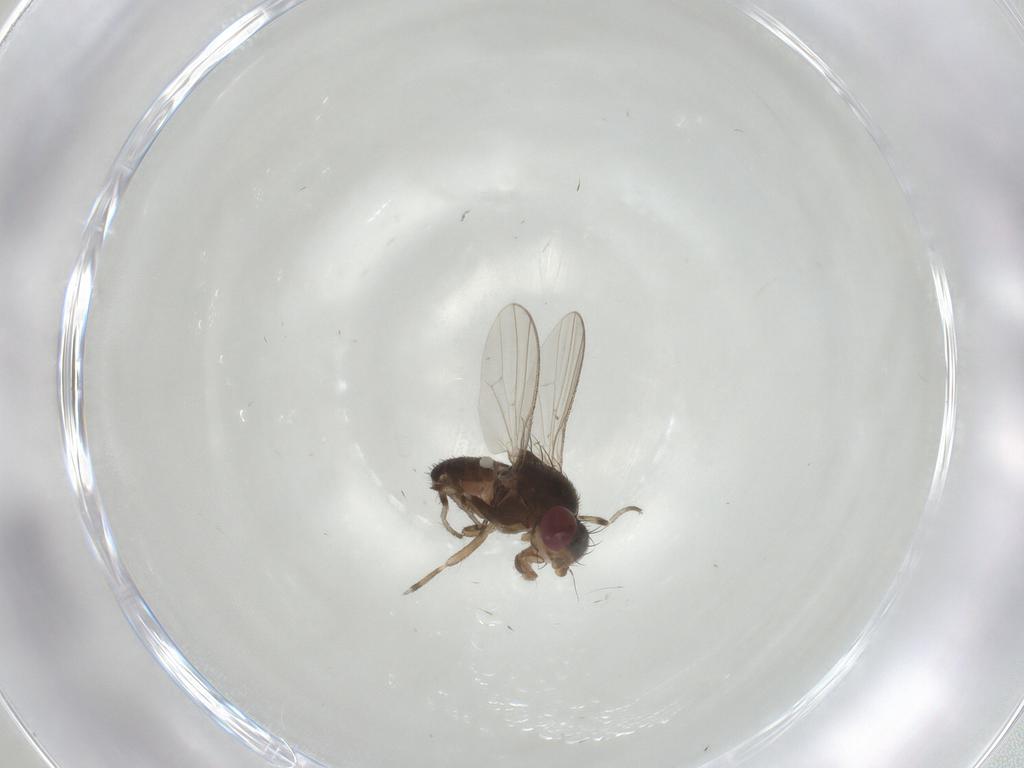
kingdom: Animalia
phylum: Arthropoda
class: Insecta
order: Diptera
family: Heleomyzidae
